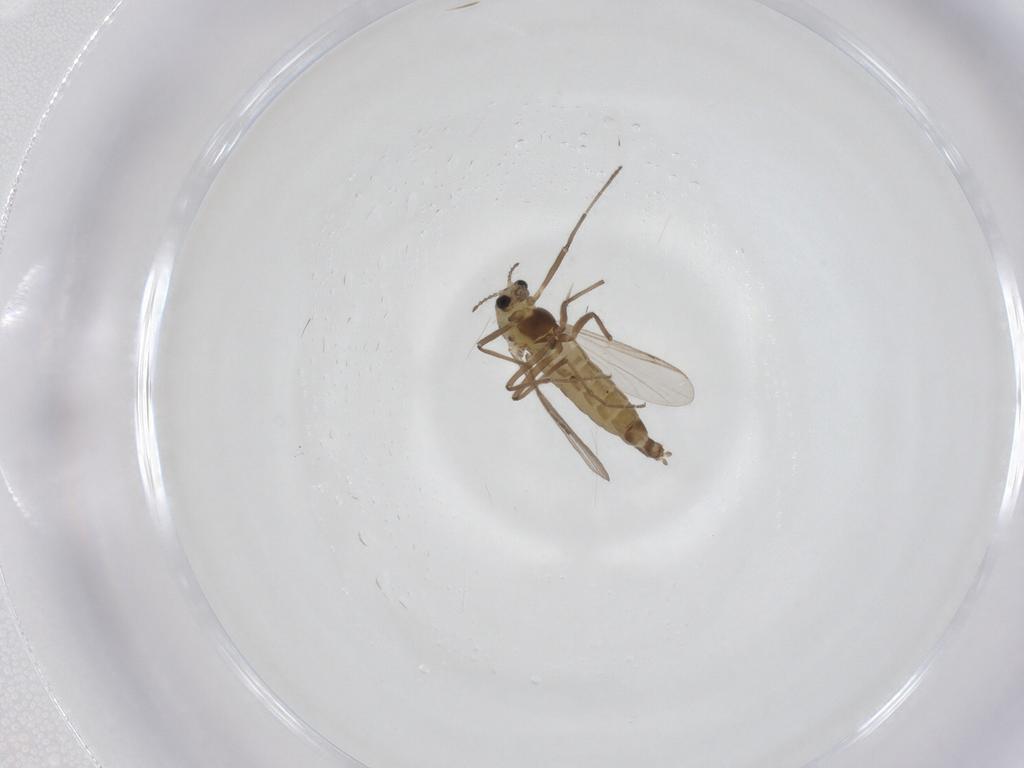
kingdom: Animalia
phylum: Arthropoda
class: Insecta
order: Diptera
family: Chironomidae
